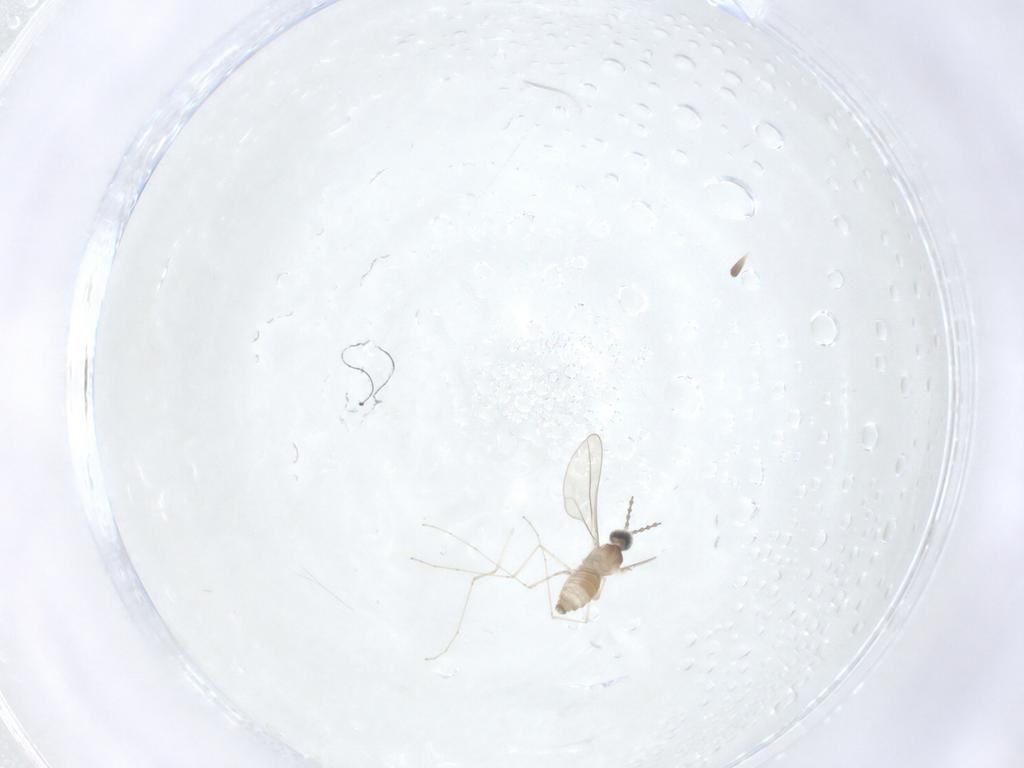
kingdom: Animalia
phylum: Arthropoda
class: Insecta
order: Diptera
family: Cecidomyiidae
